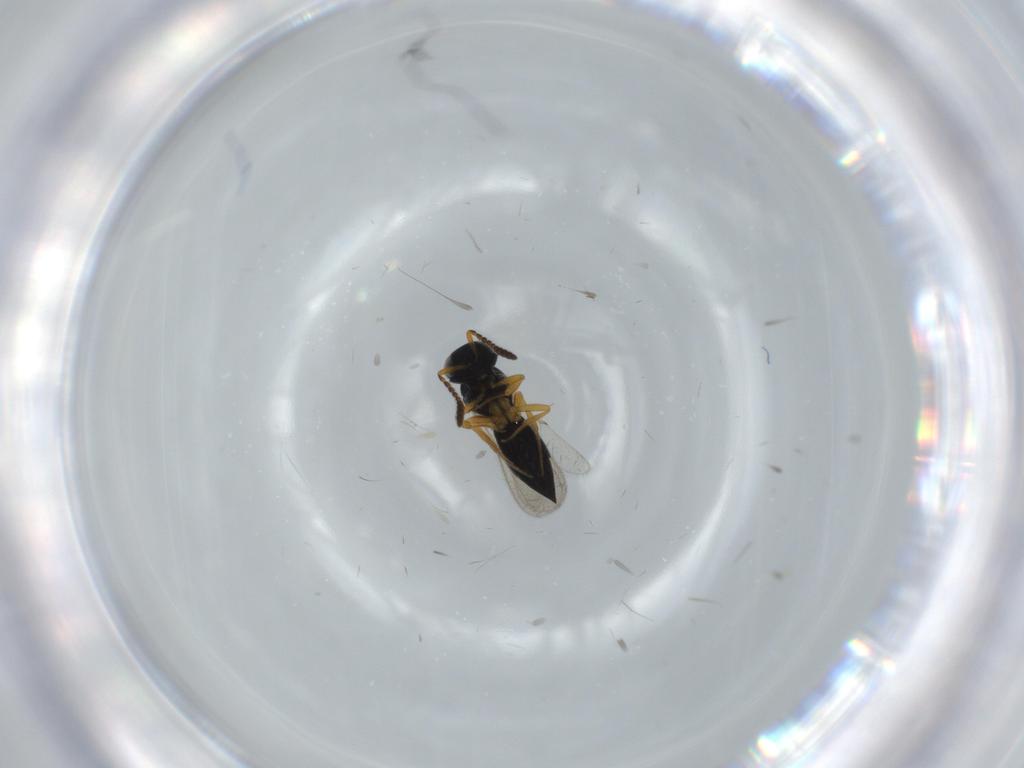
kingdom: Animalia
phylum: Arthropoda
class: Insecta
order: Hymenoptera
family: Scelionidae
